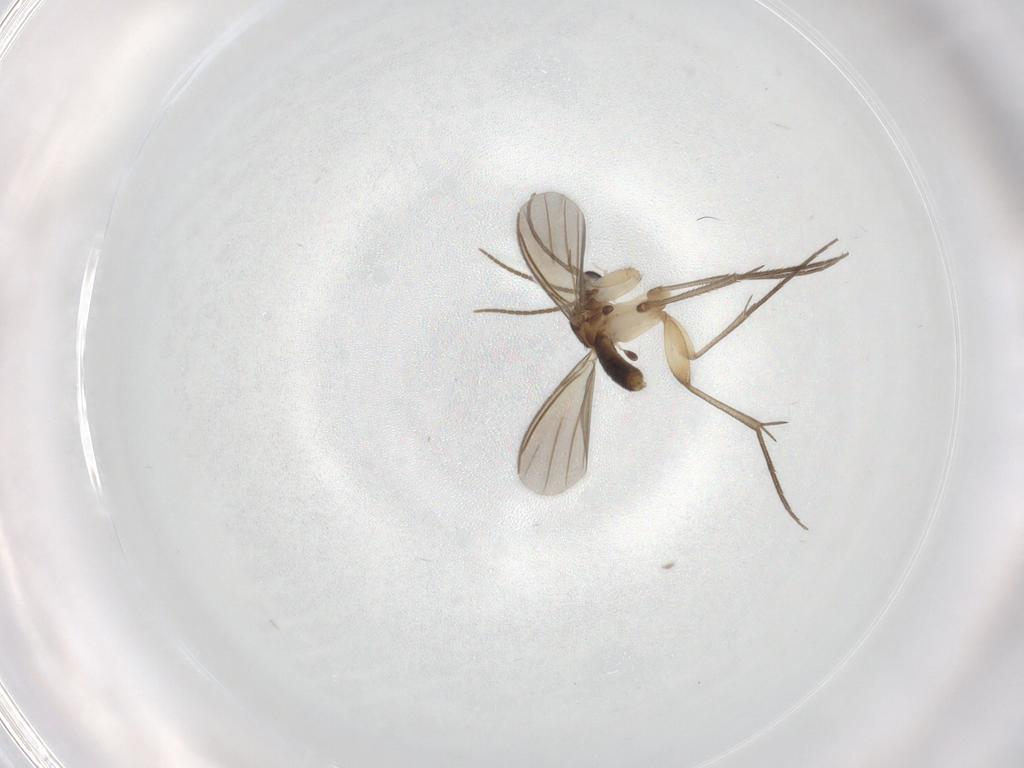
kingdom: Animalia
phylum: Arthropoda
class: Insecta
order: Diptera
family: Mycetophilidae
